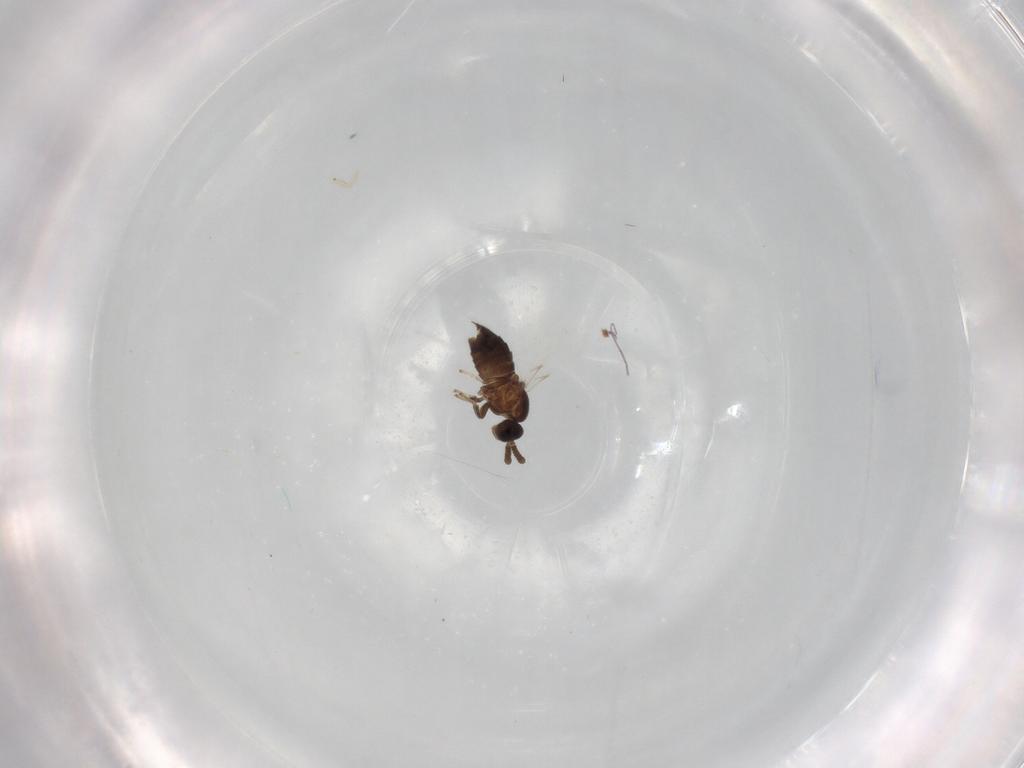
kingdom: Animalia
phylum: Arthropoda
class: Insecta
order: Diptera
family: Scatopsidae
